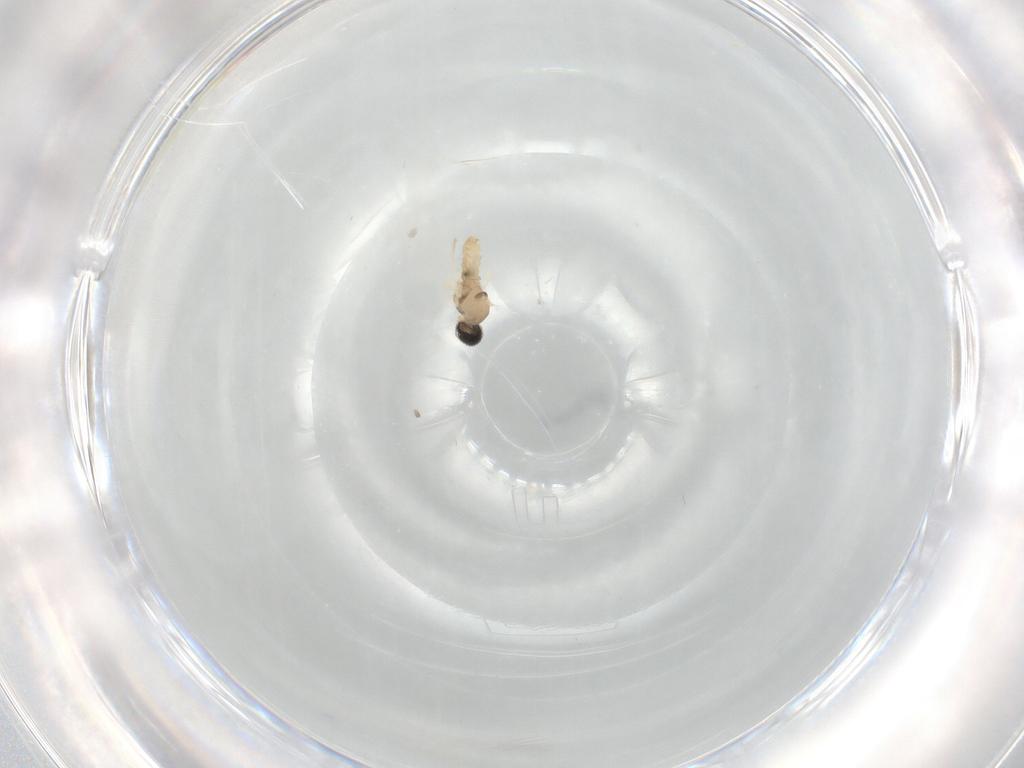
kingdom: Animalia
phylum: Arthropoda
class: Insecta
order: Diptera
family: Cecidomyiidae
